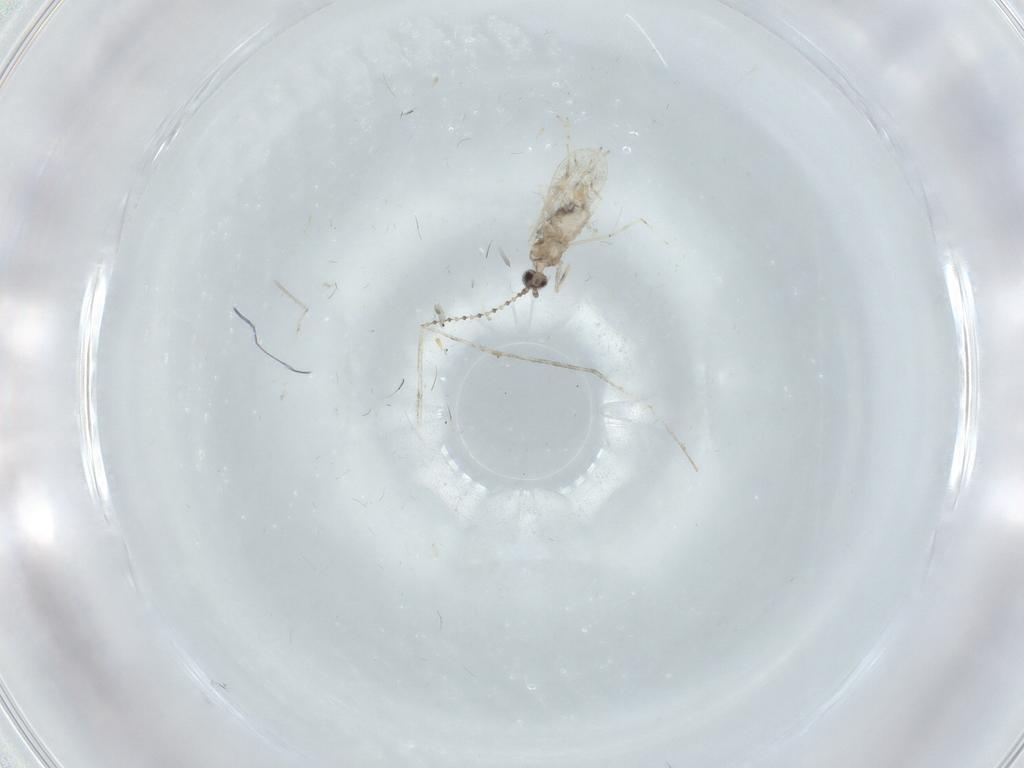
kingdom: Animalia
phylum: Arthropoda
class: Insecta
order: Diptera
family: Cecidomyiidae
